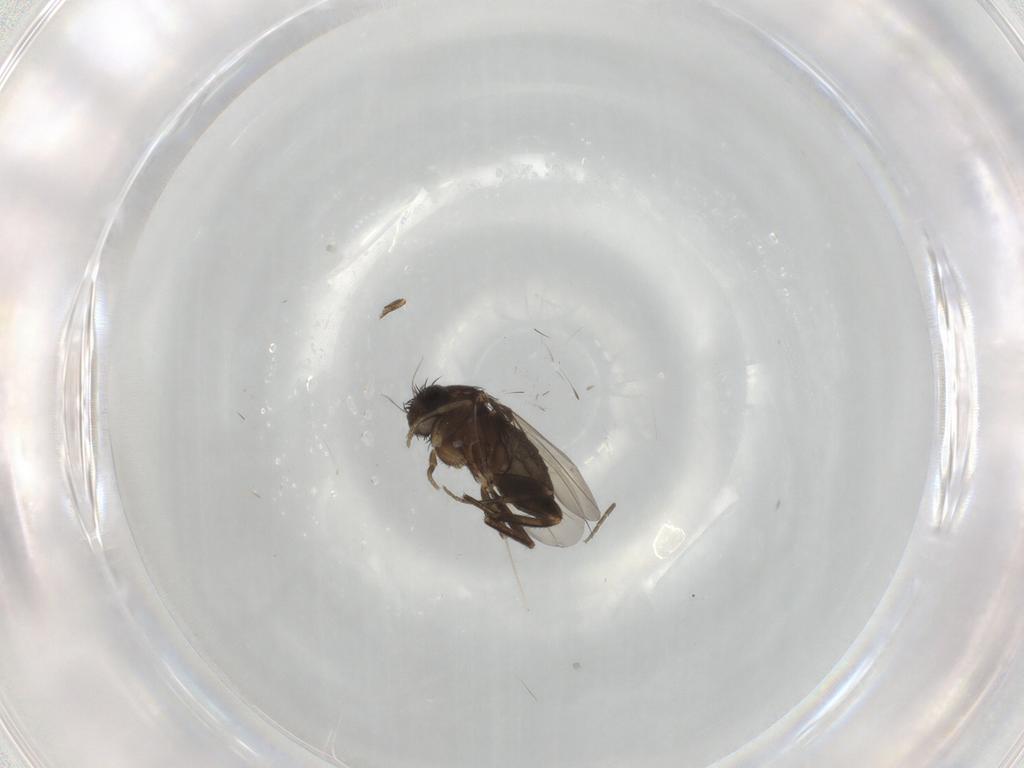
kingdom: Animalia
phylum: Arthropoda
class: Insecta
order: Diptera
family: Phoridae
